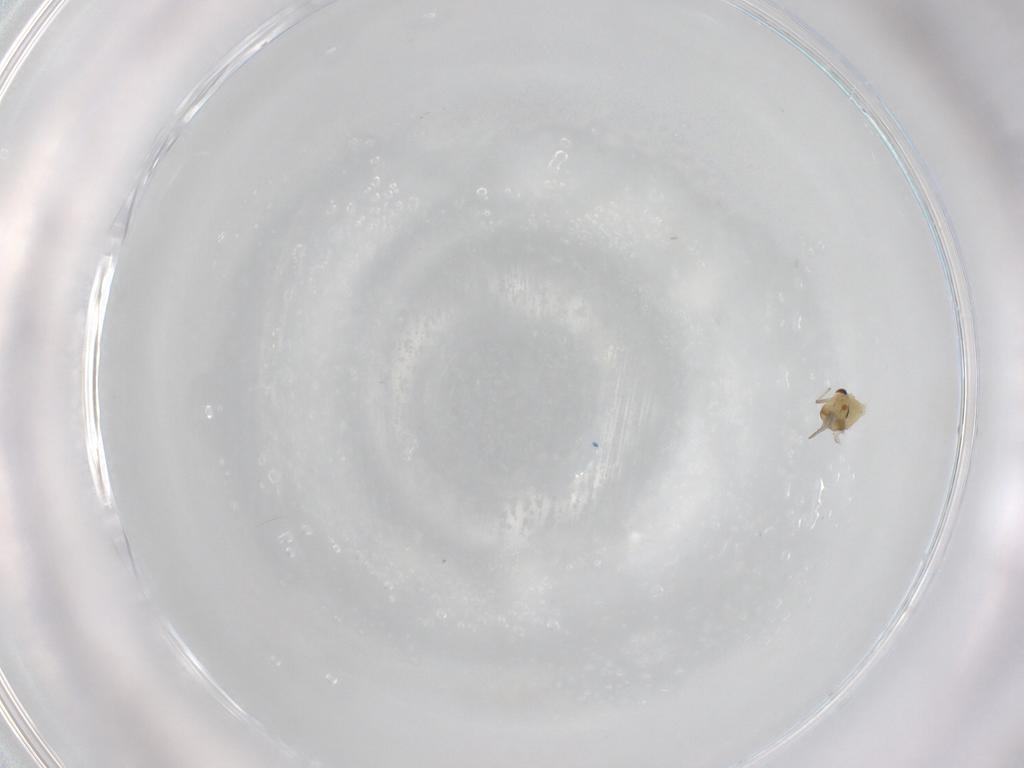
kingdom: Animalia
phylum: Arthropoda
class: Insecta
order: Diptera
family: Chironomidae
